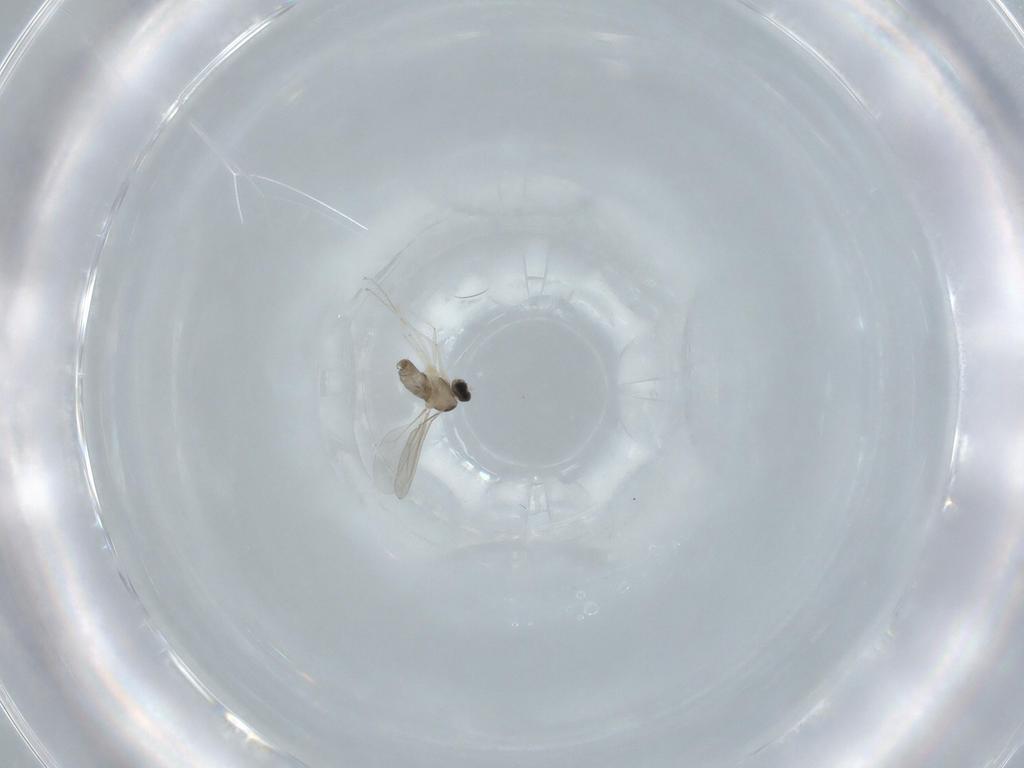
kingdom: Animalia
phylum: Arthropoda
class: Insecta
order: Diptera
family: Cecidomyiidae
